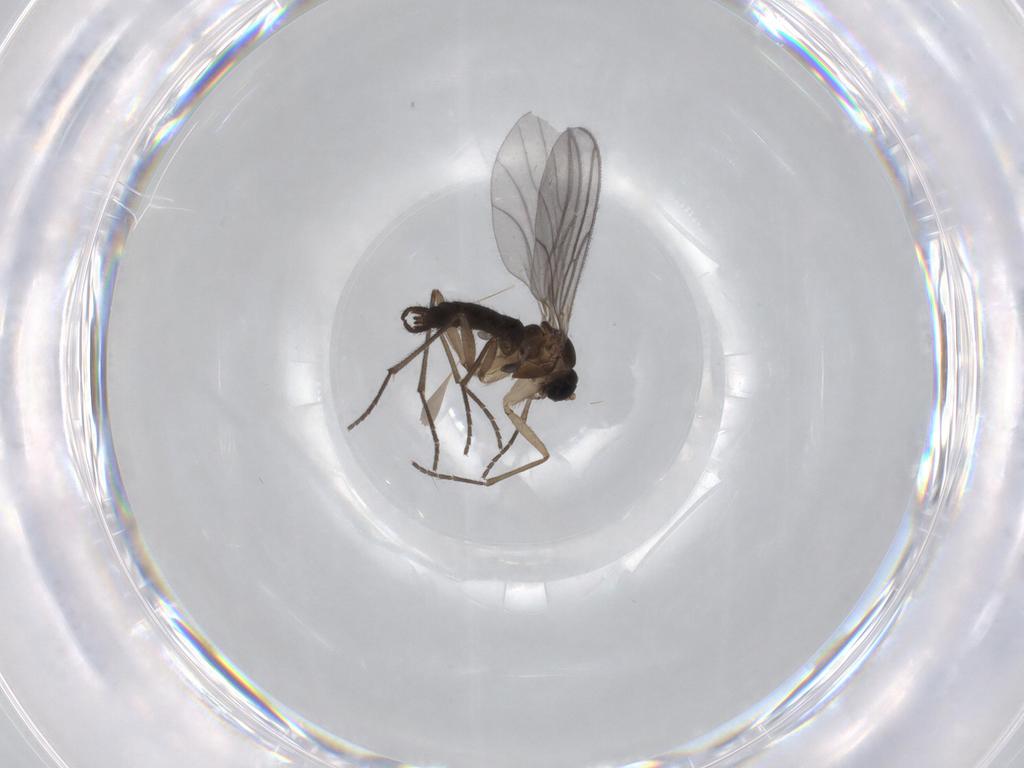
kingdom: Animalia
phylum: Arthropoda
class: Insecta
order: Diptera
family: Sciaridae
